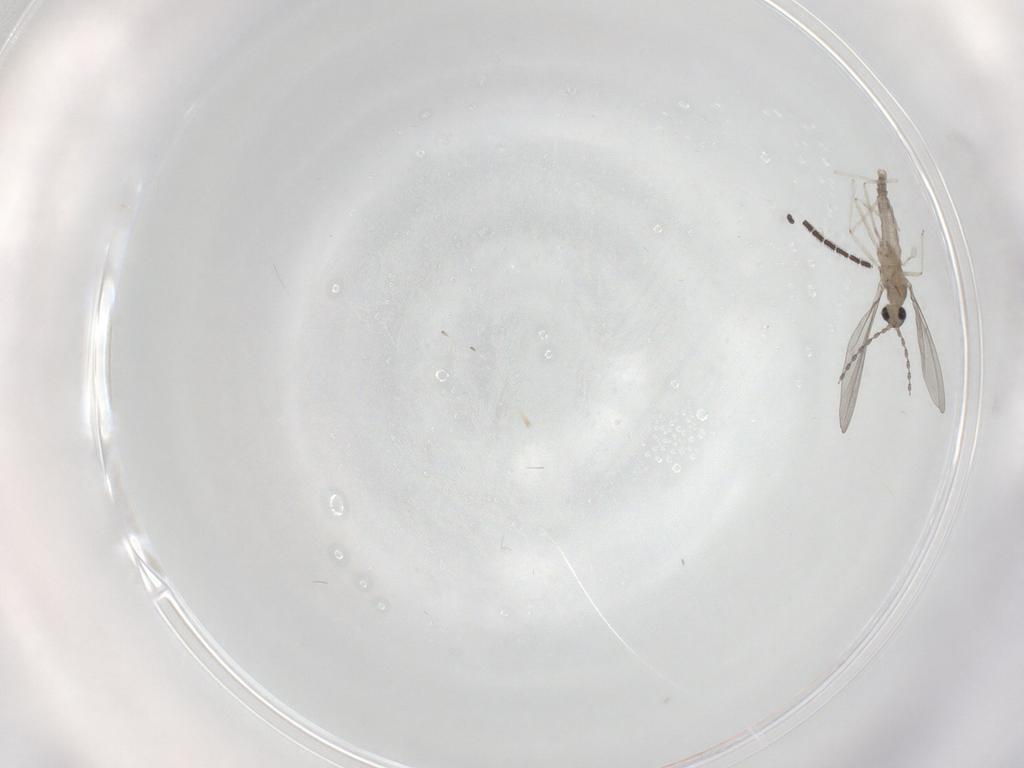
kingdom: Animalia
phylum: Arthropoda
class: Insecta
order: Diptera
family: Cecidomyiidae
